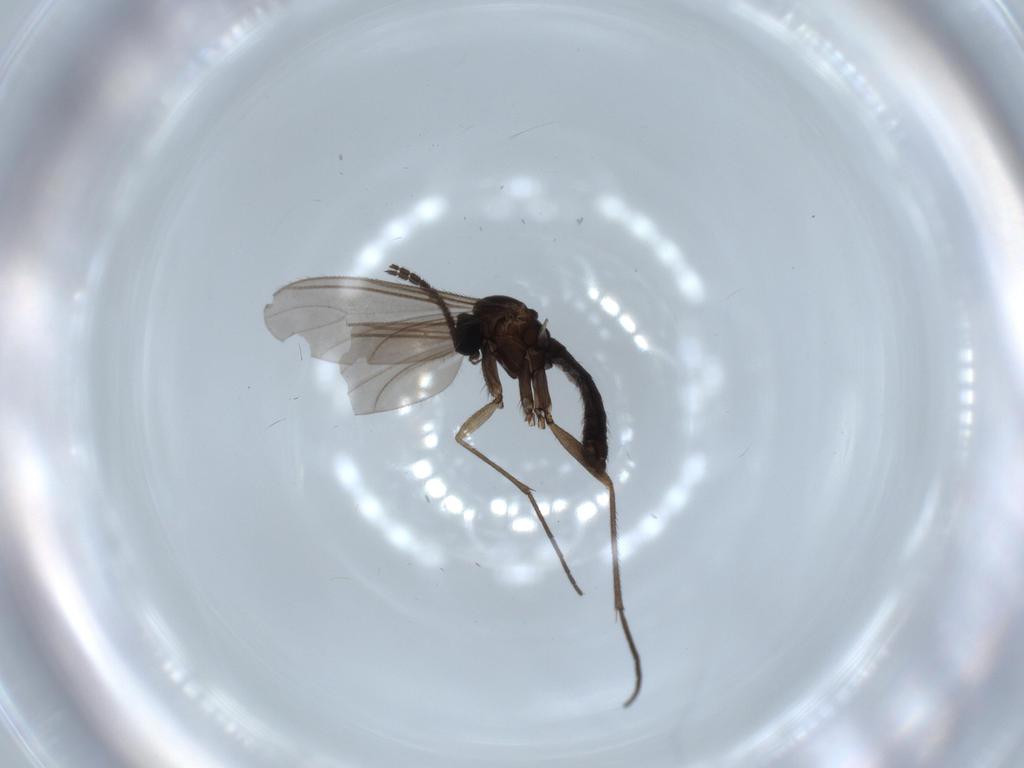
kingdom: Animalia
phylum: Arthropoda
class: Insecta
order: Diptera
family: Sciaridae
